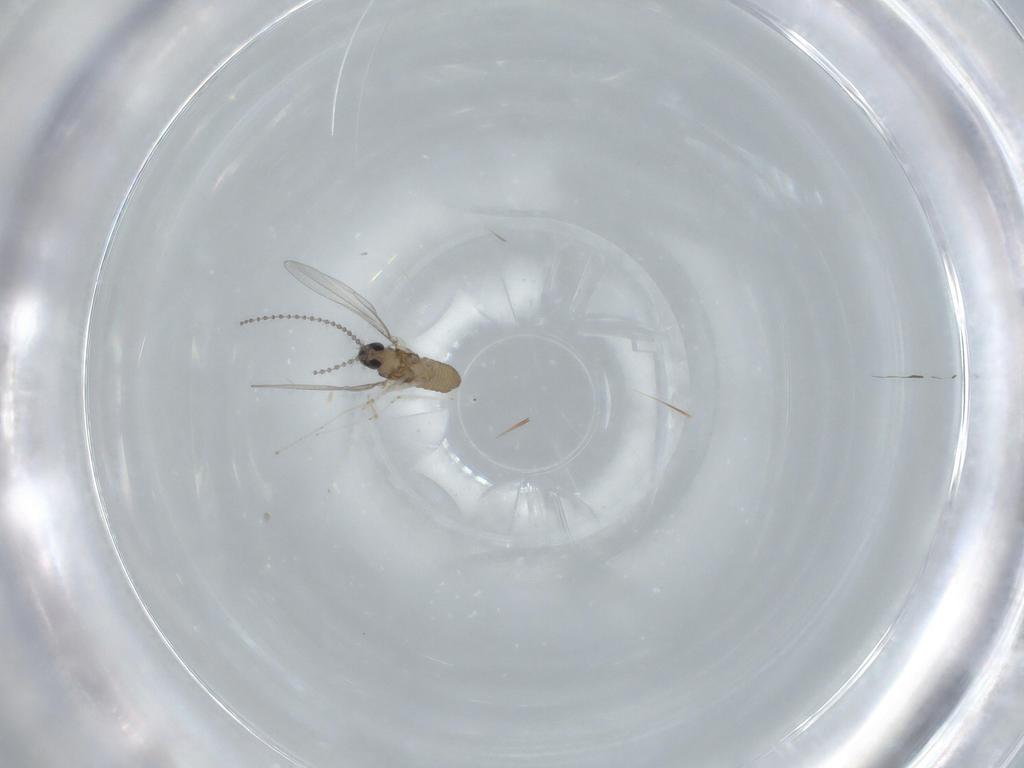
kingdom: Animalia
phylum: Arthropoda
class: Insecta
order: Diptera
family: Cecidomyiidae
